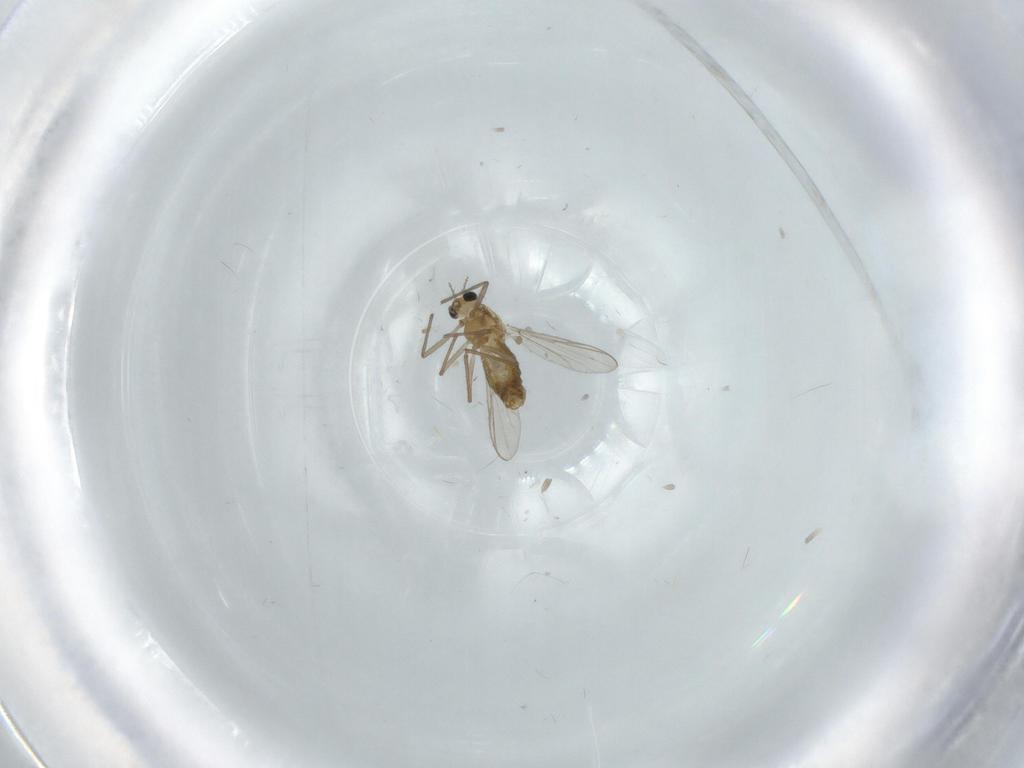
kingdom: Animalia
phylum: Arthropoda
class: Insecta
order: Diptera
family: Chironomidae
